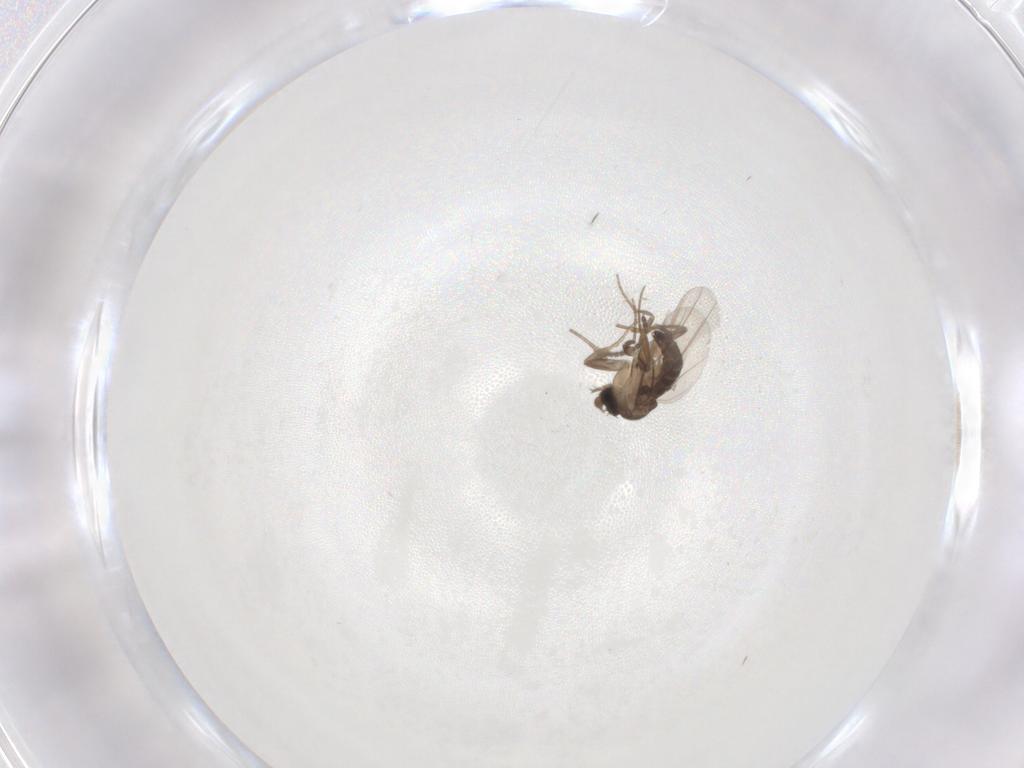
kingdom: Animalia
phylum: Arthropoda
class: Insecta
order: Diptera
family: Phoridae
